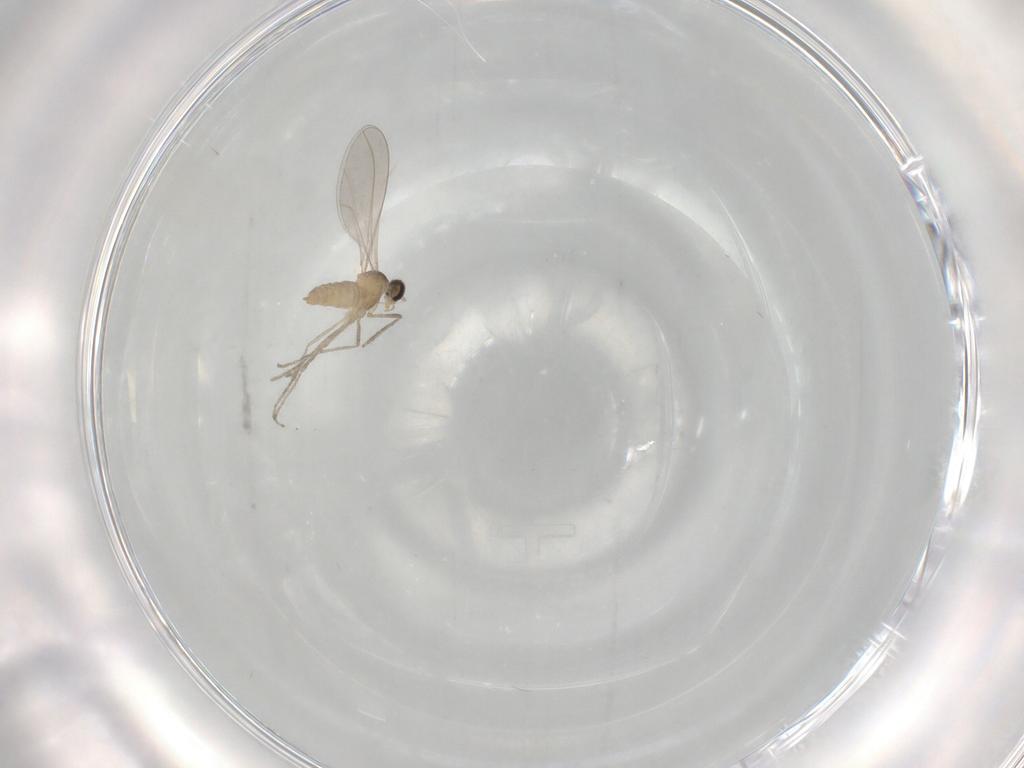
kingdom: Animalia
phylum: Arthropoda
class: Insecta
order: Diptera
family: Cecidomyiidae
